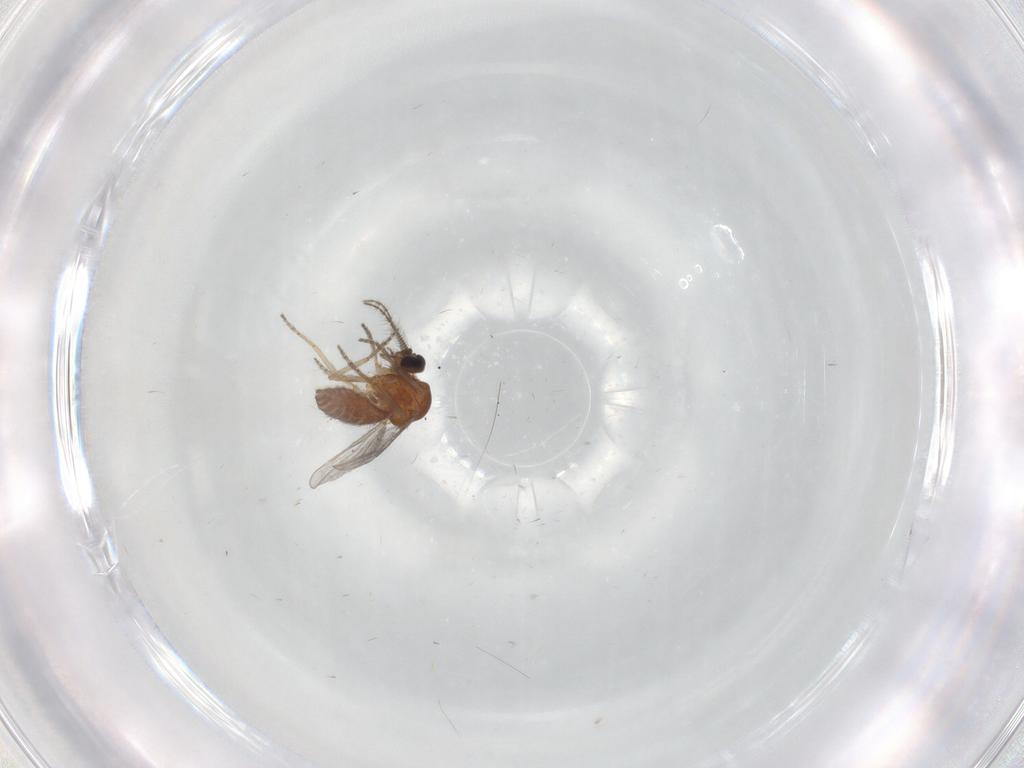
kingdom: Animalia
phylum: Arthropoda
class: Insecta
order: Diptera
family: Ceratopogonidae
